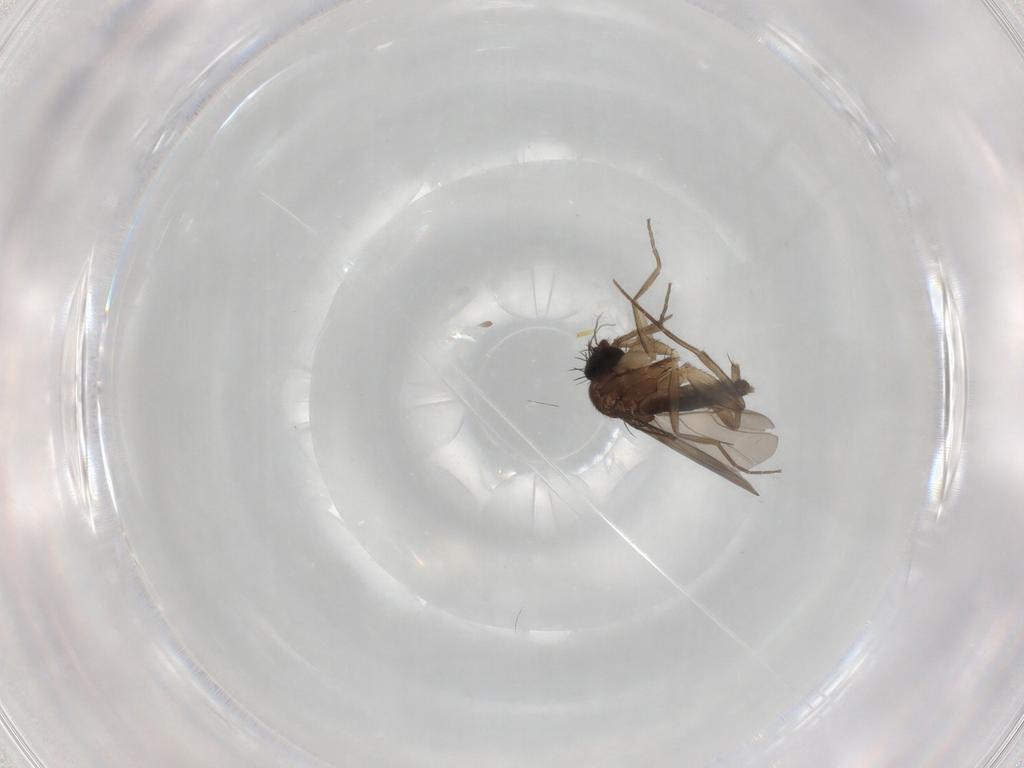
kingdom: Animalia
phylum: Arthropoda
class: Insecta
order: Diptera
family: Phoridae
